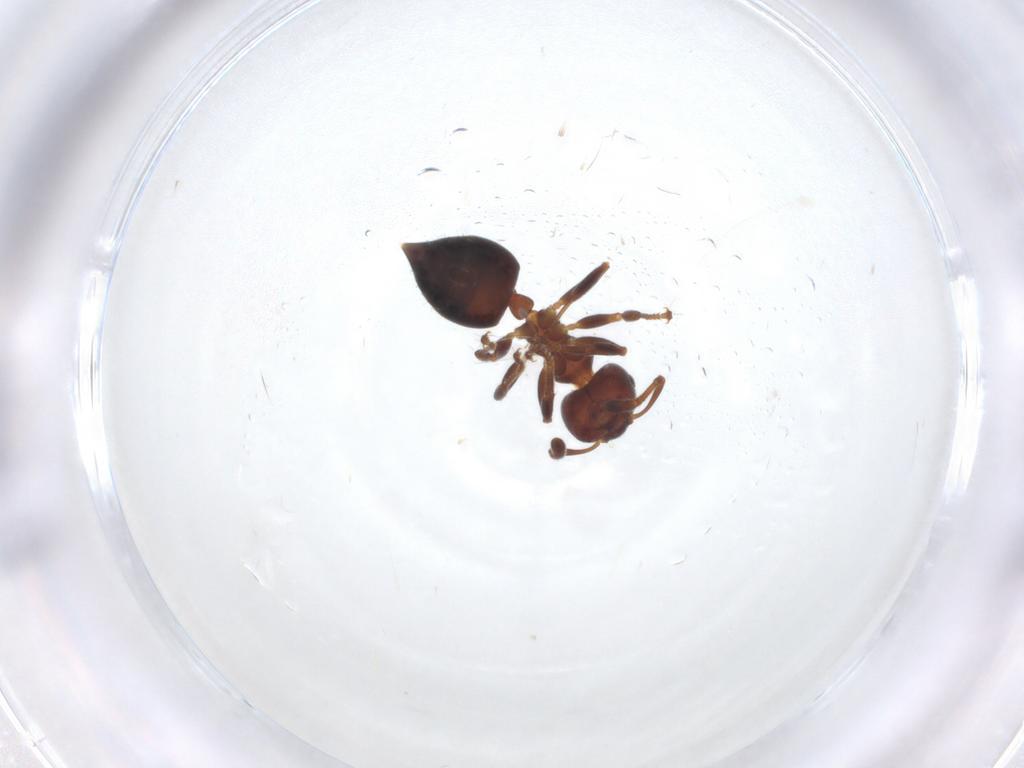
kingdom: Animalia
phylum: Arthropoda
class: Insecta
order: Hymenoptera
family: Formicidae
